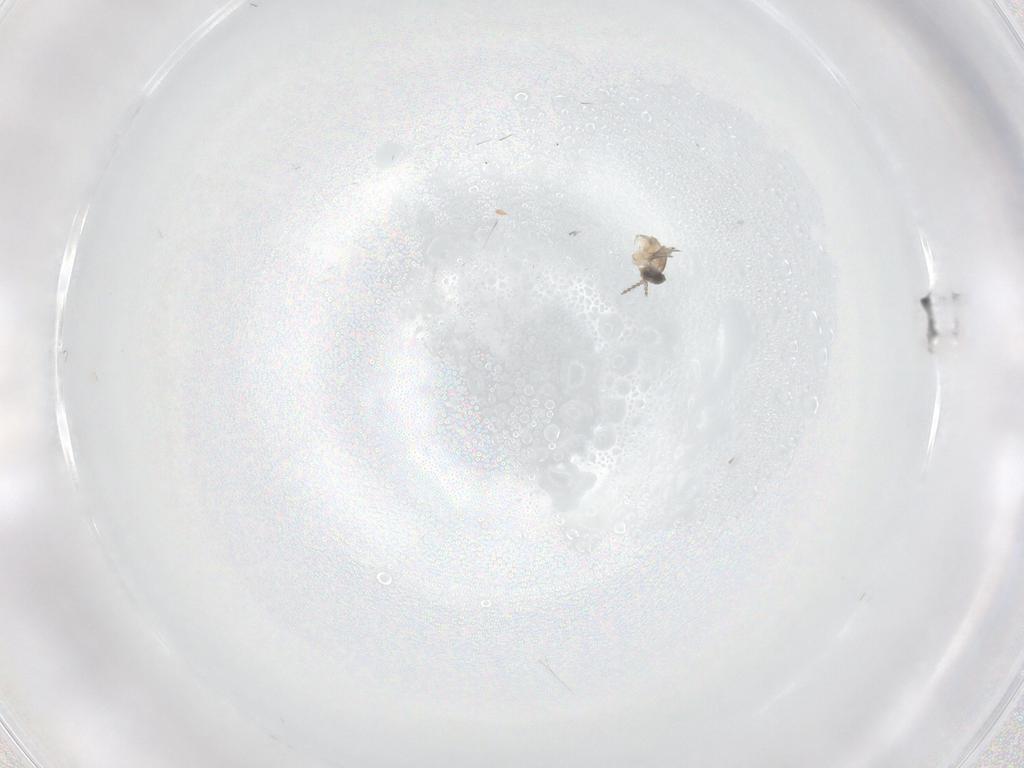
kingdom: Animalia
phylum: Arthropoda
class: Insecta
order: Diptera
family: Cecidomyiidae
